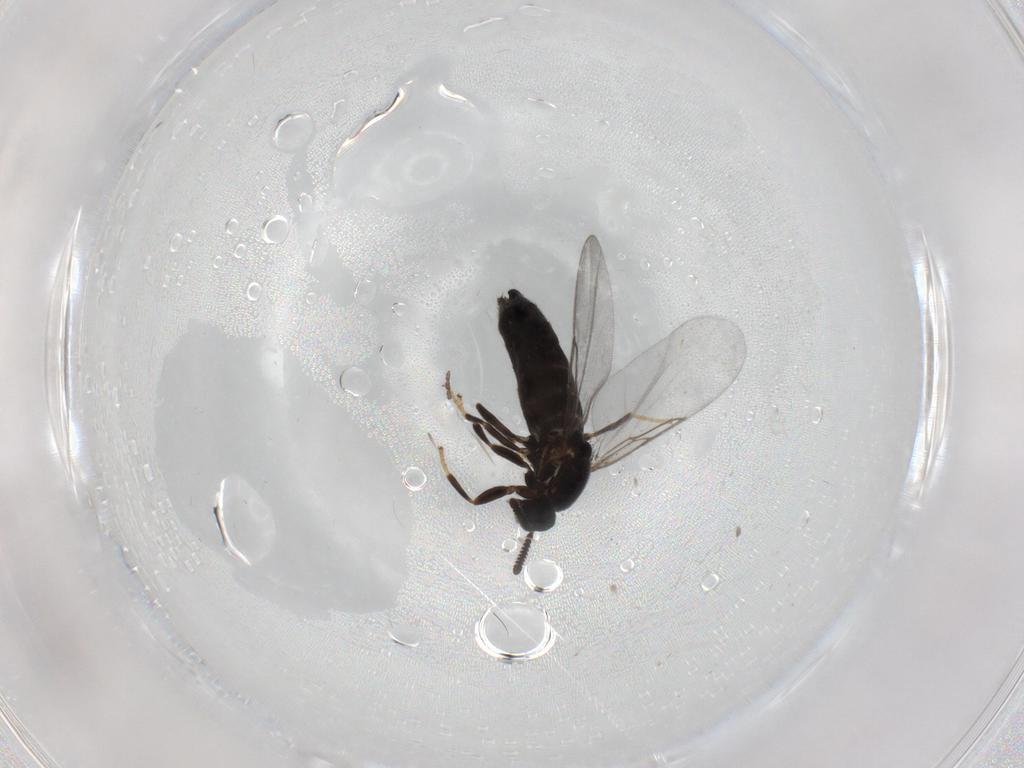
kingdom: Animalia
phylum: Arthropoda
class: Insecta
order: Diptera
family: Scatopsidae
